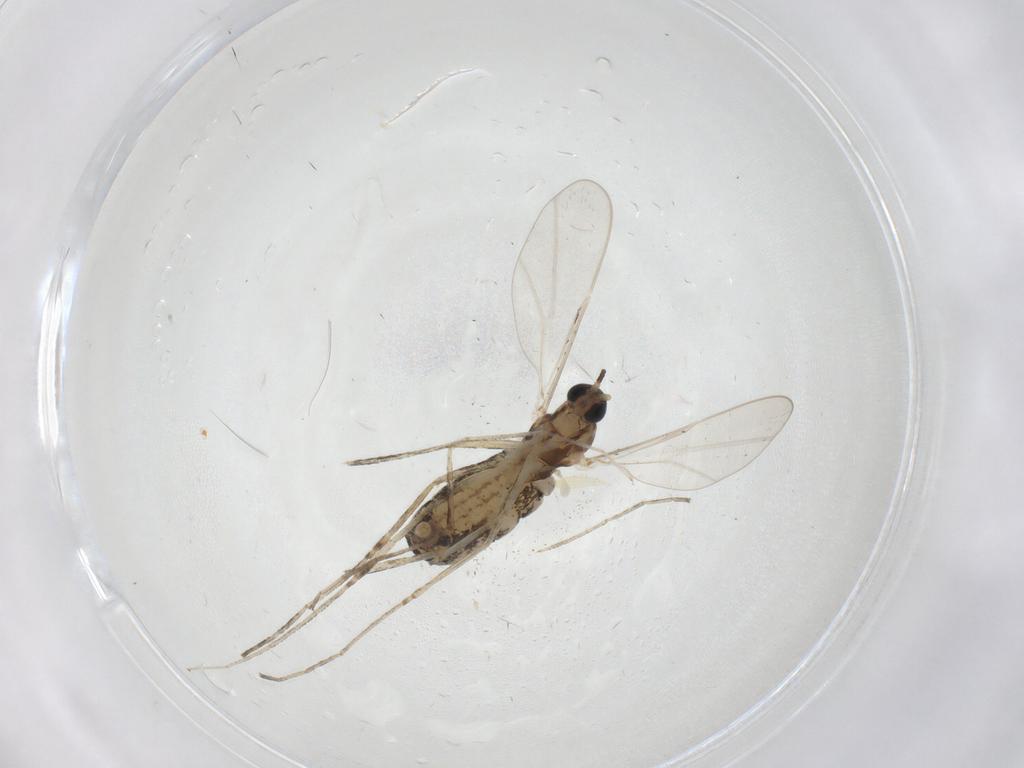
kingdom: Animalia
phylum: Arthropoda
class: Insecta
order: Diptera
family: Cecidomyiidae
